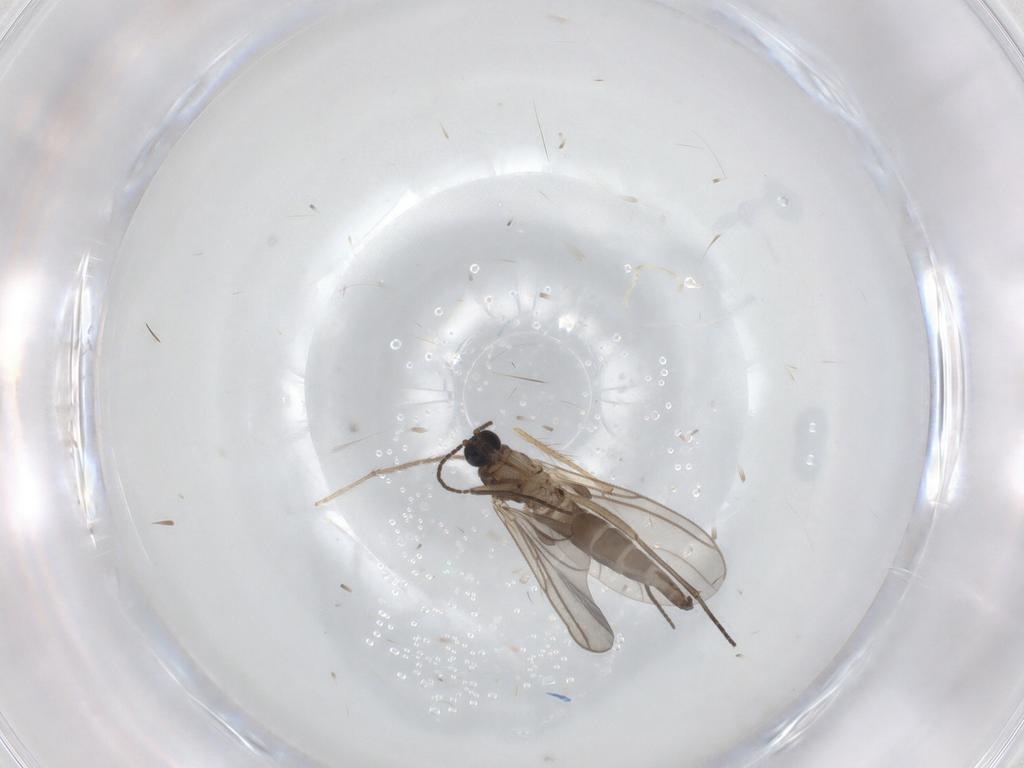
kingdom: Animalia
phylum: Arthropoda
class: Insecta
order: Diptera
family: Sciaridae
